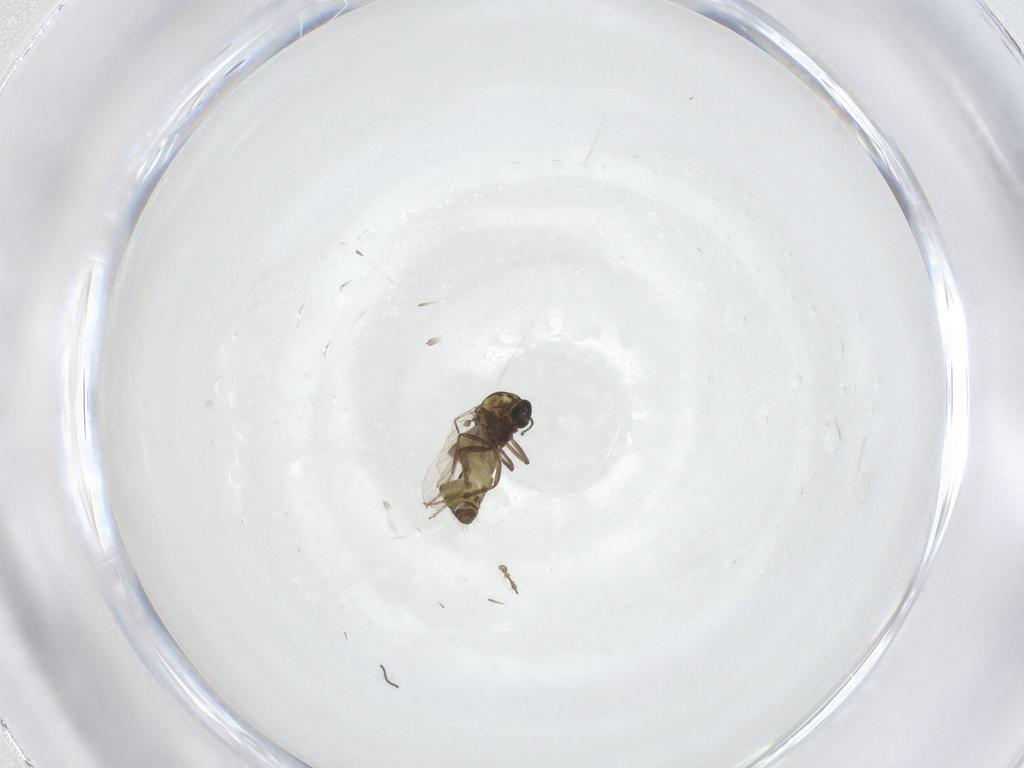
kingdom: Animalia
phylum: Arthropoda
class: Insecta
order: Diptera
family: Ceratopogonidae
